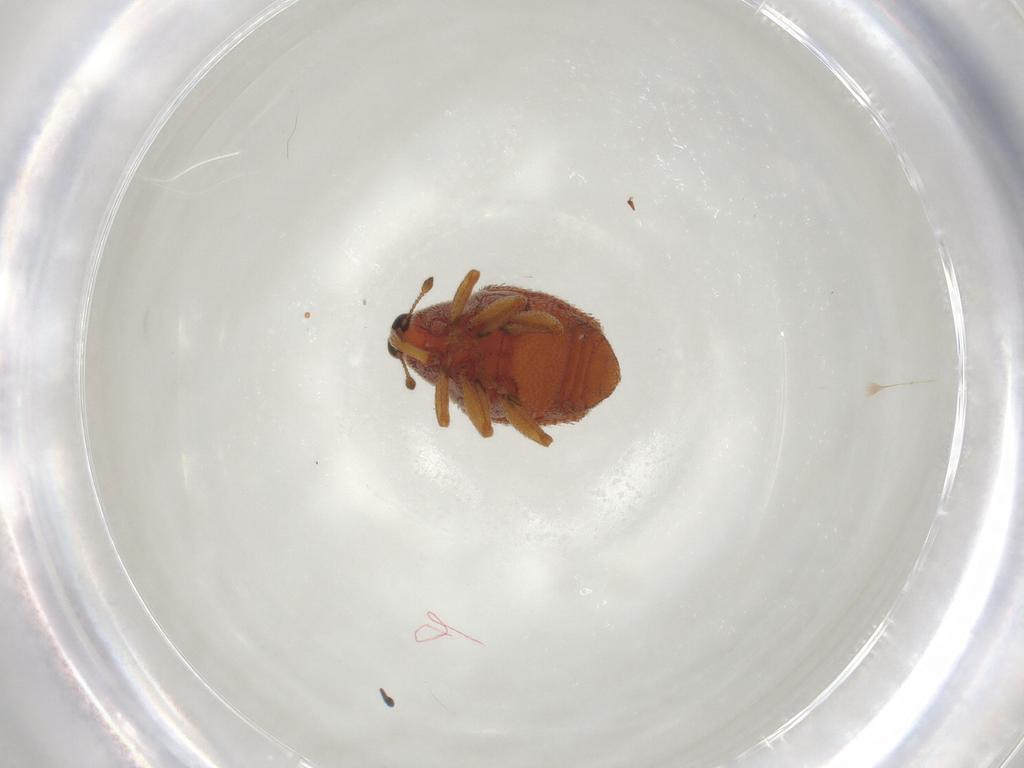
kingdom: Animalia
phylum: Arthropoda
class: Insecta
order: Coleoptera
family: Curculionidae
